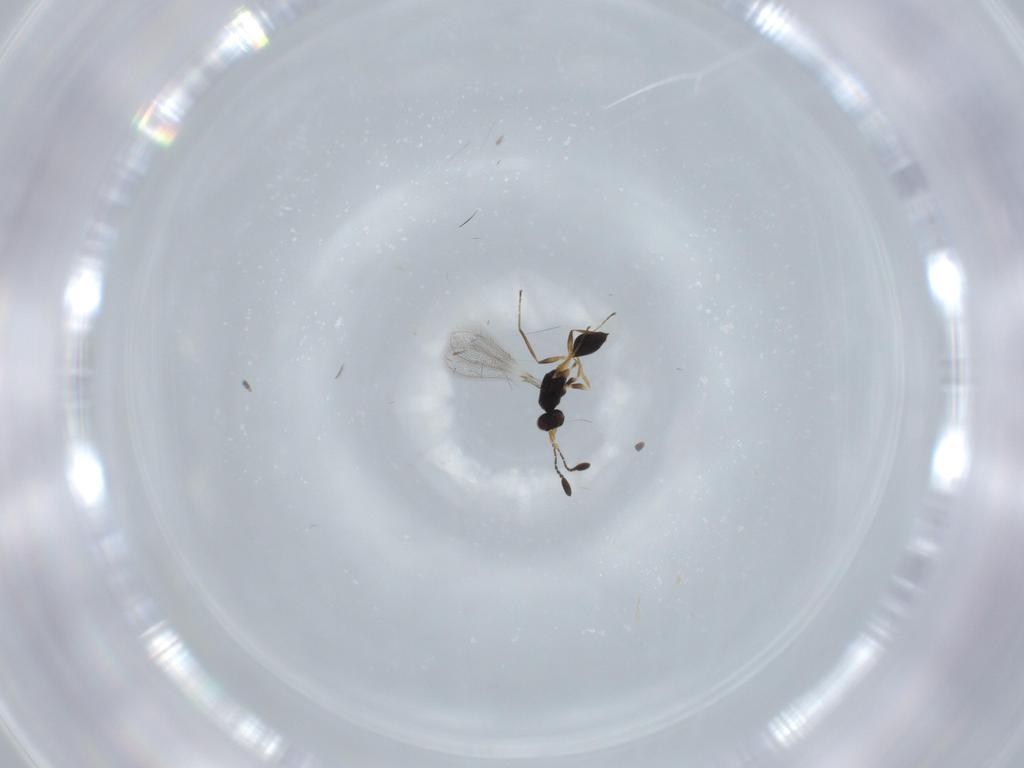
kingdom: Animalia
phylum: Arthropoda
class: Insecta
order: Hymenoptera
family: Mymaridae
